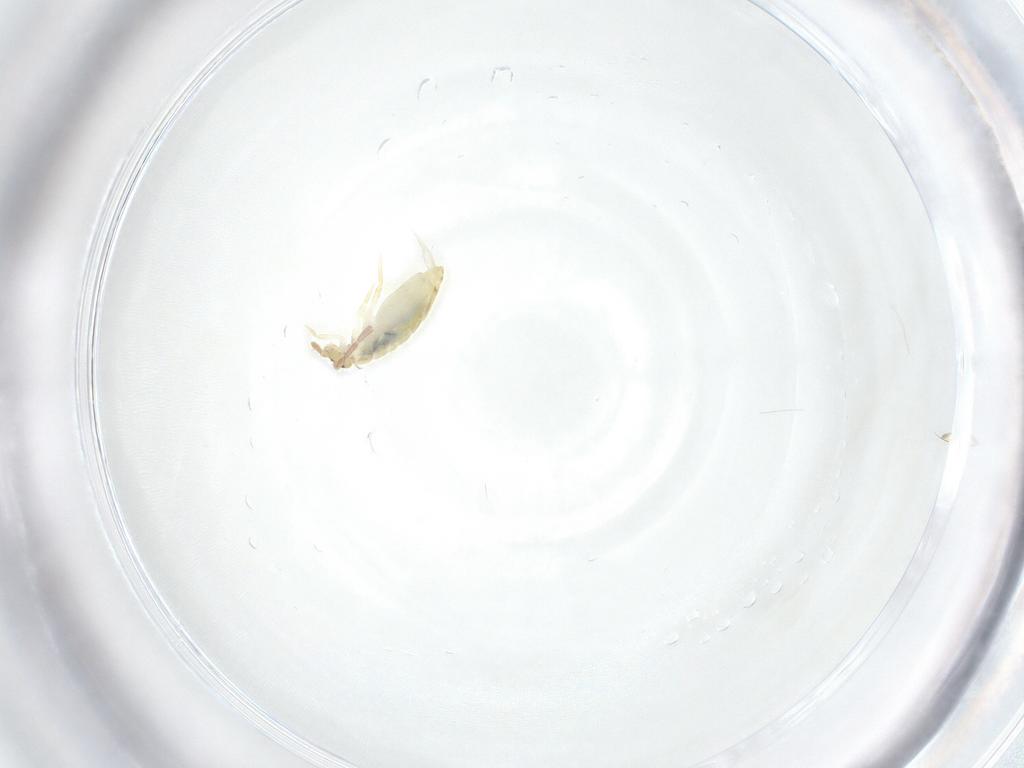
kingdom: Animalia
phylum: Arthropoda
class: Collembola
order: Entomobryomorpha
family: Entomobryidae
